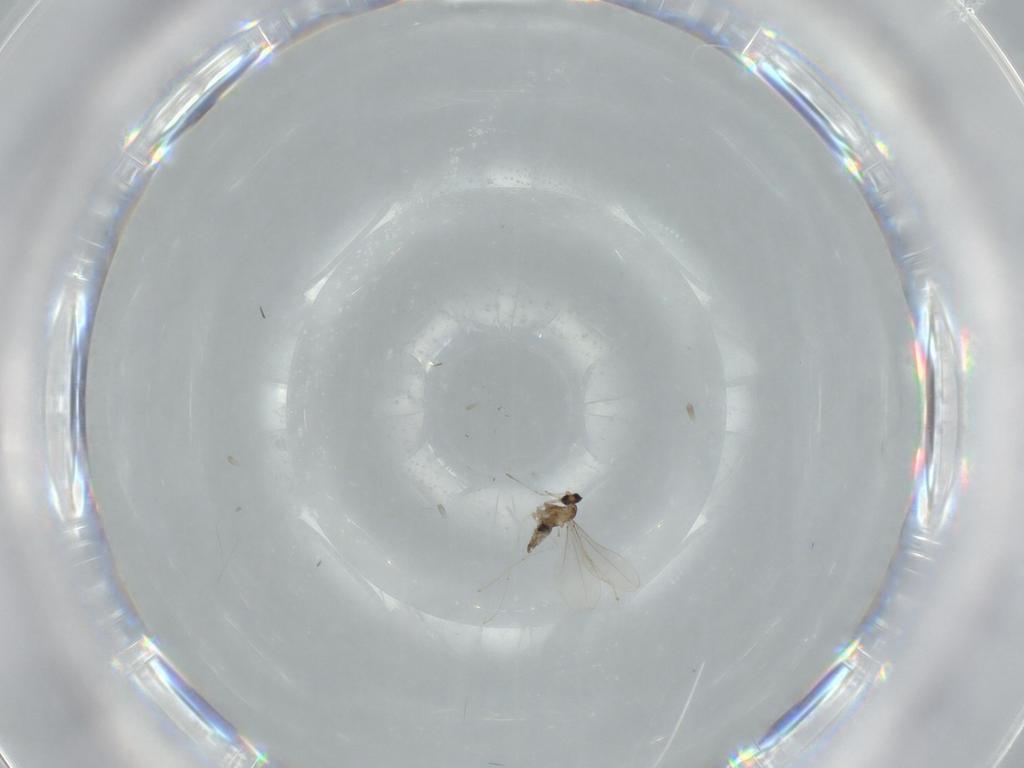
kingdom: Animalia
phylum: Arthropoda
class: Insecta
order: Diptera
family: Cecidomyiidae
